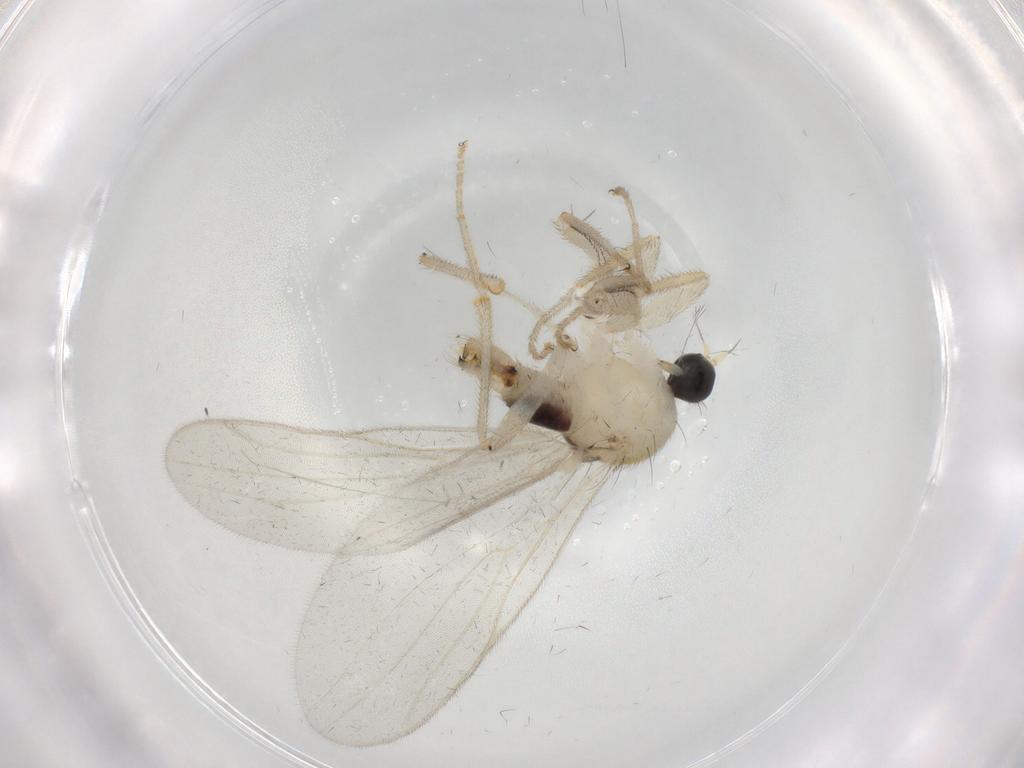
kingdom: Animalia
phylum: Arthropoda
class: Insecta
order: Diptera
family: Hybotidae
